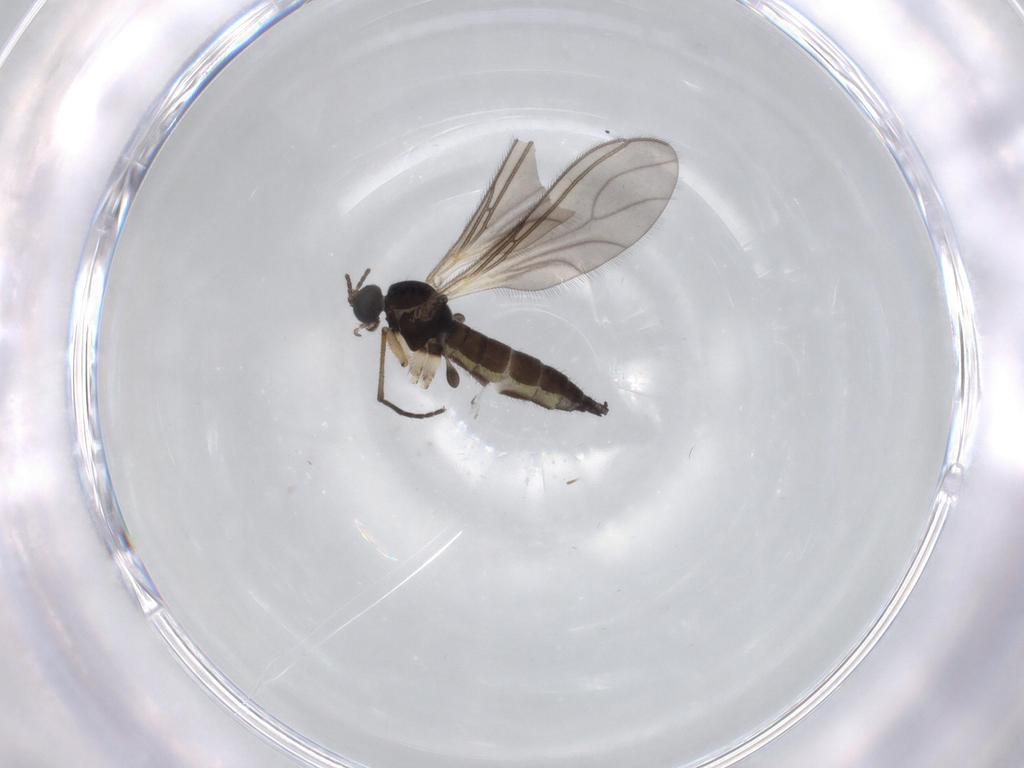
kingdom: Animalia
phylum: Arthropoda
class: Insecta
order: Diptera
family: Sciaridae
